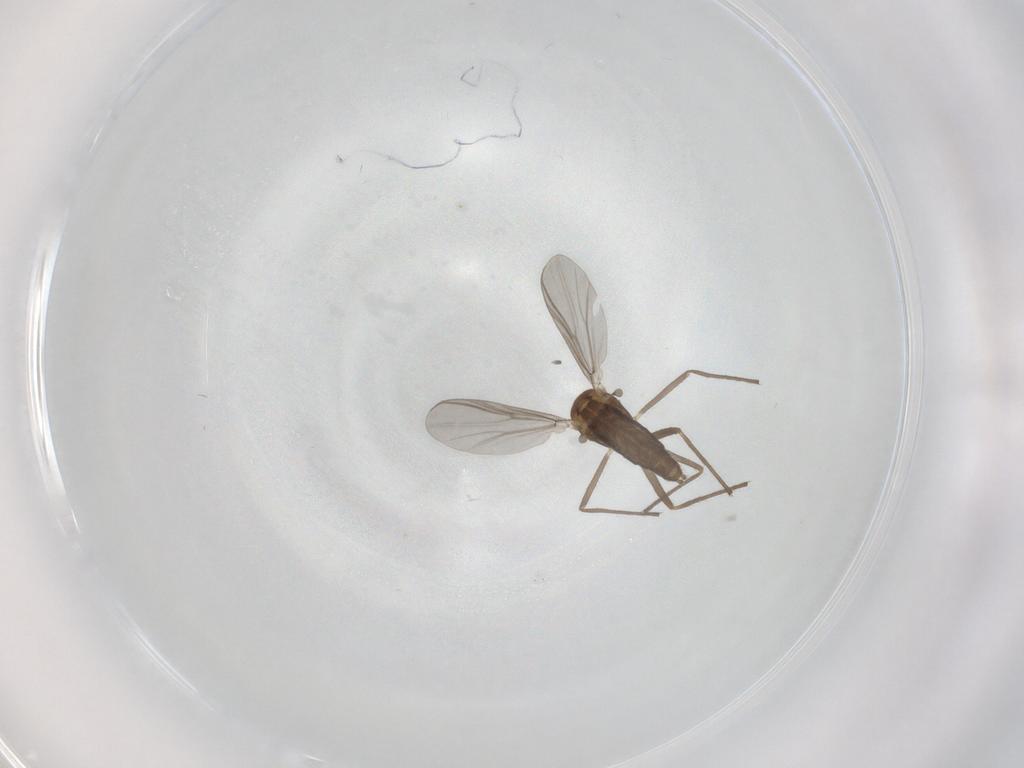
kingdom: Animalia
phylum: Arthropoda
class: Insecta
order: Diptera
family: Chironomidae
